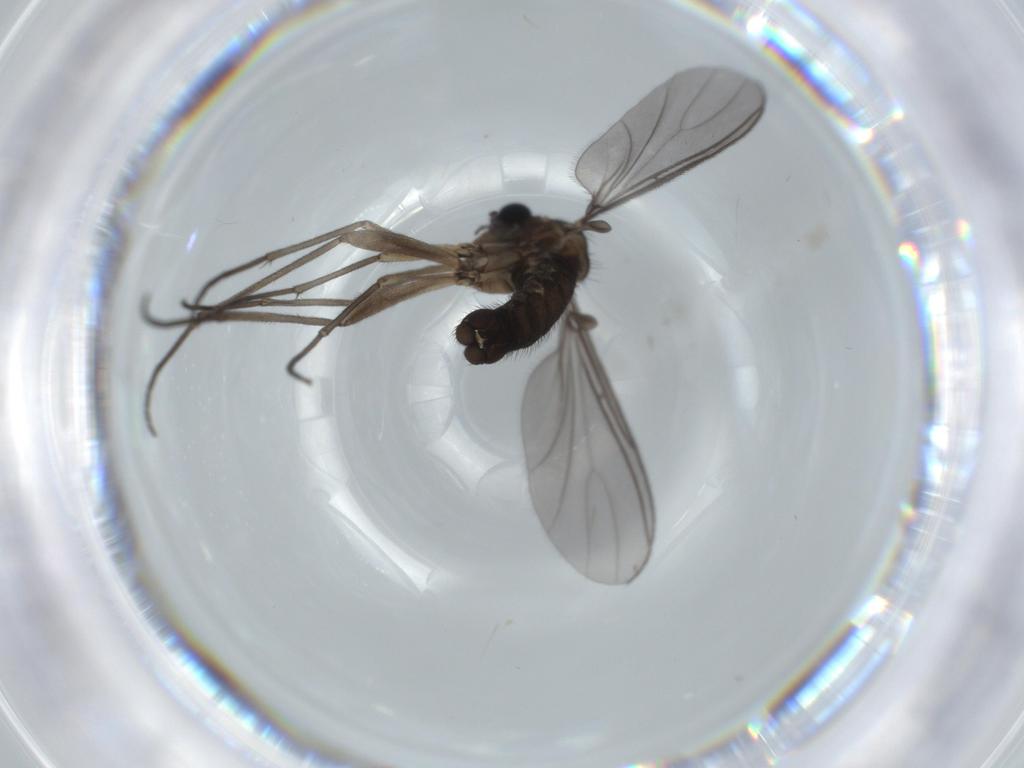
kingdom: Animalia
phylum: Arthropoda
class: Insecta
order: Diptera
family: Sciaridae
